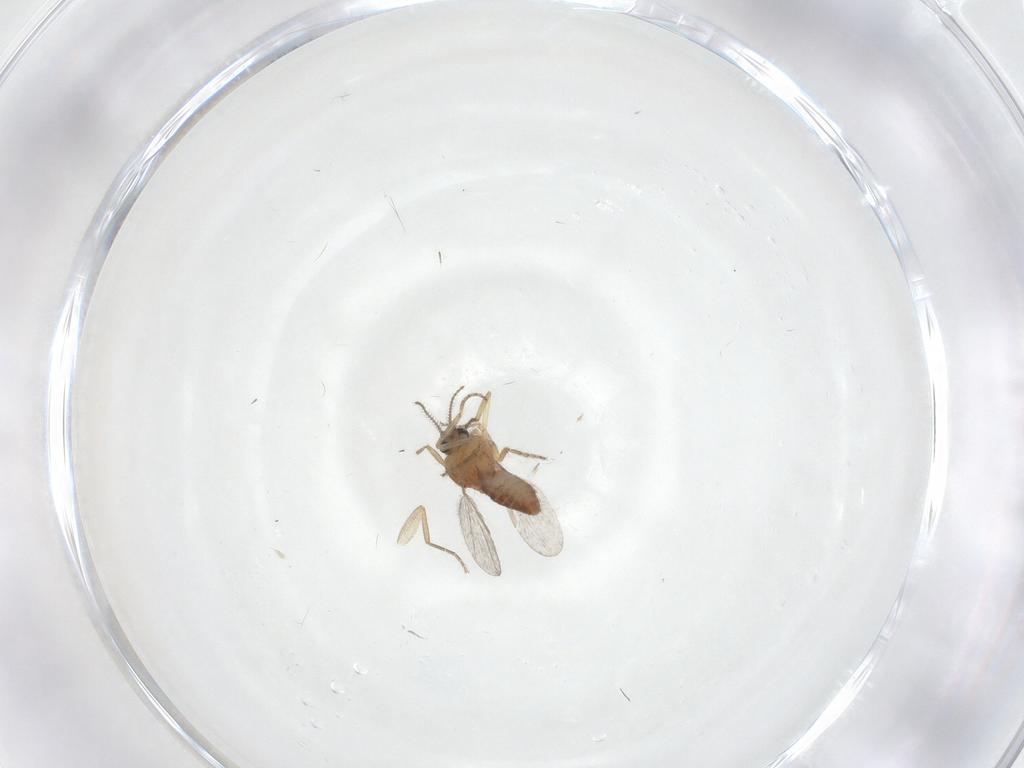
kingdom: Animalia
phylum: Arthropoda
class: Insecta
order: Diptera
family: Ceratopogonidae
